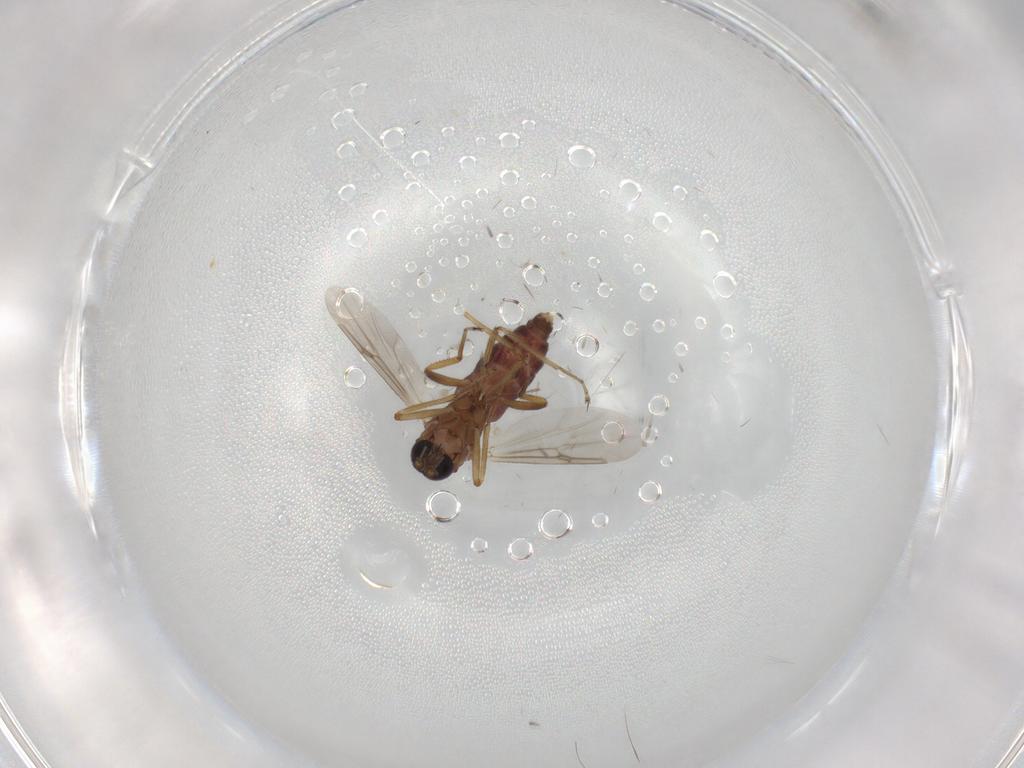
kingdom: Animalia
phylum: Arthropoda
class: Insecta
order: Diptera
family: Ceratopogonidae
